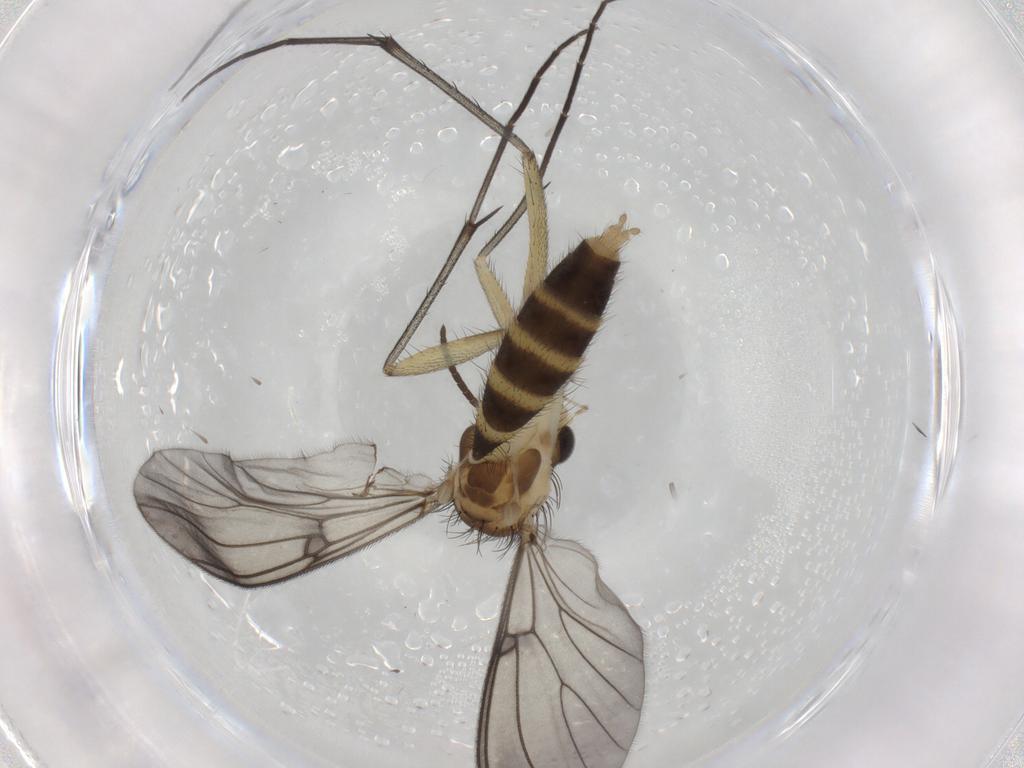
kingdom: Animalia
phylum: Arthropoda
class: Insecta
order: Diptera
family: Mycetophilidae
